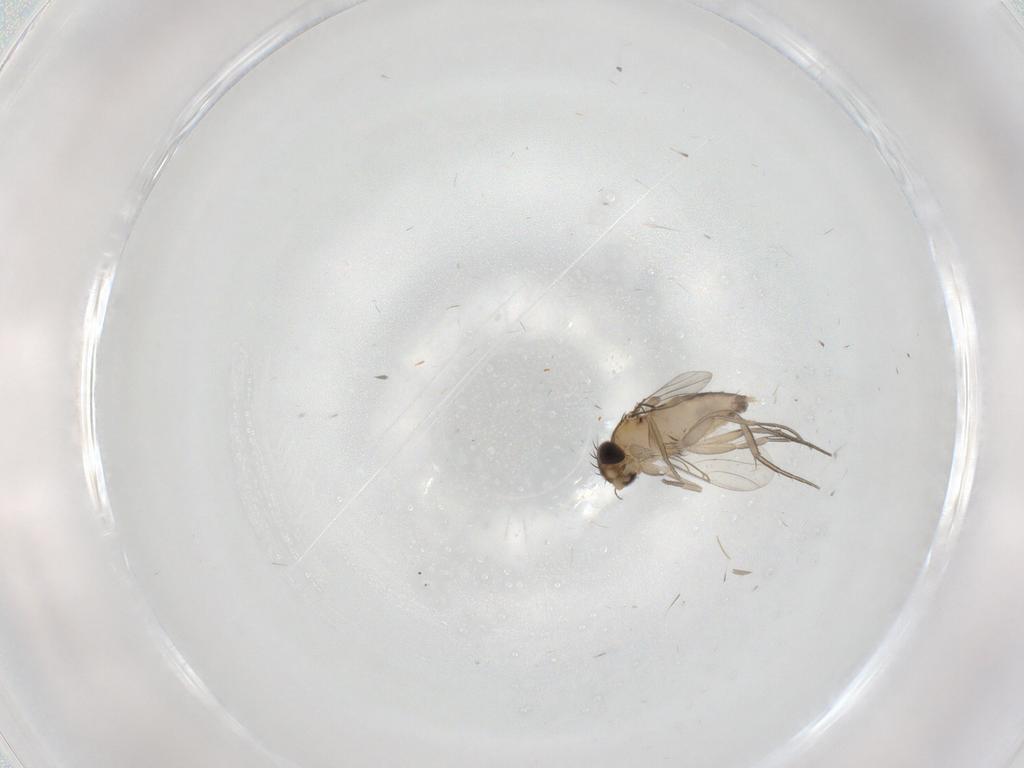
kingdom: Animalia
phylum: Arthropoda
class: Insecta
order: Diptera
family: Phoridae
